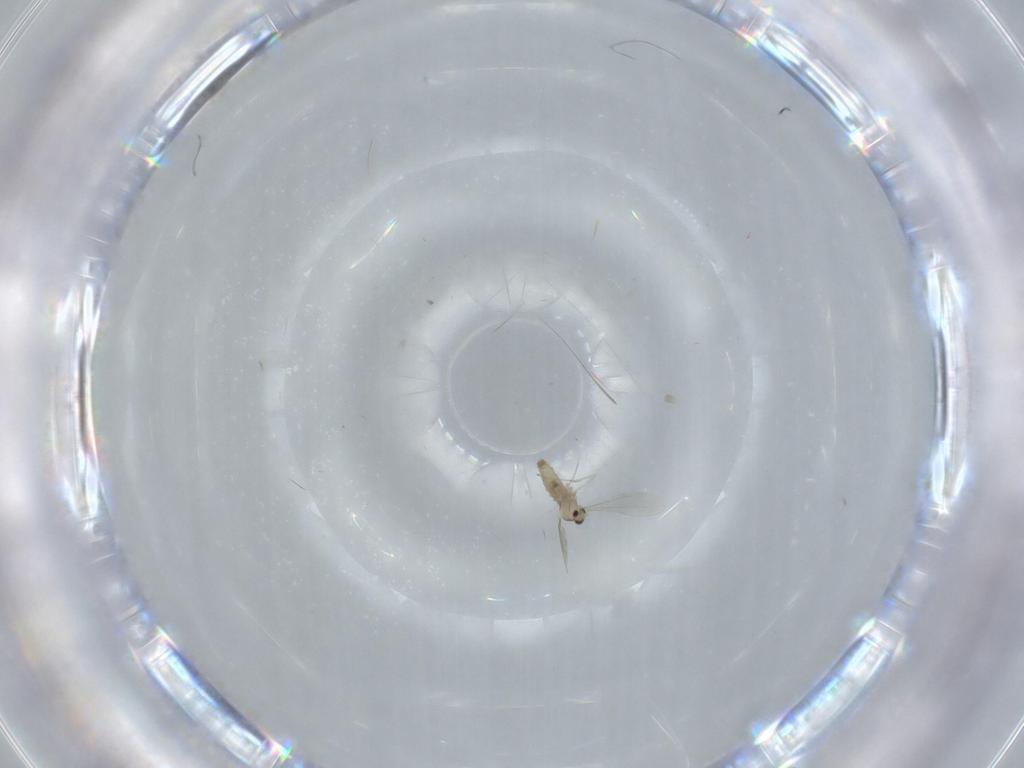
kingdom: Animalia
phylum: Arthropoda
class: Insecta
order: Diptera
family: Cecidomyiidae
